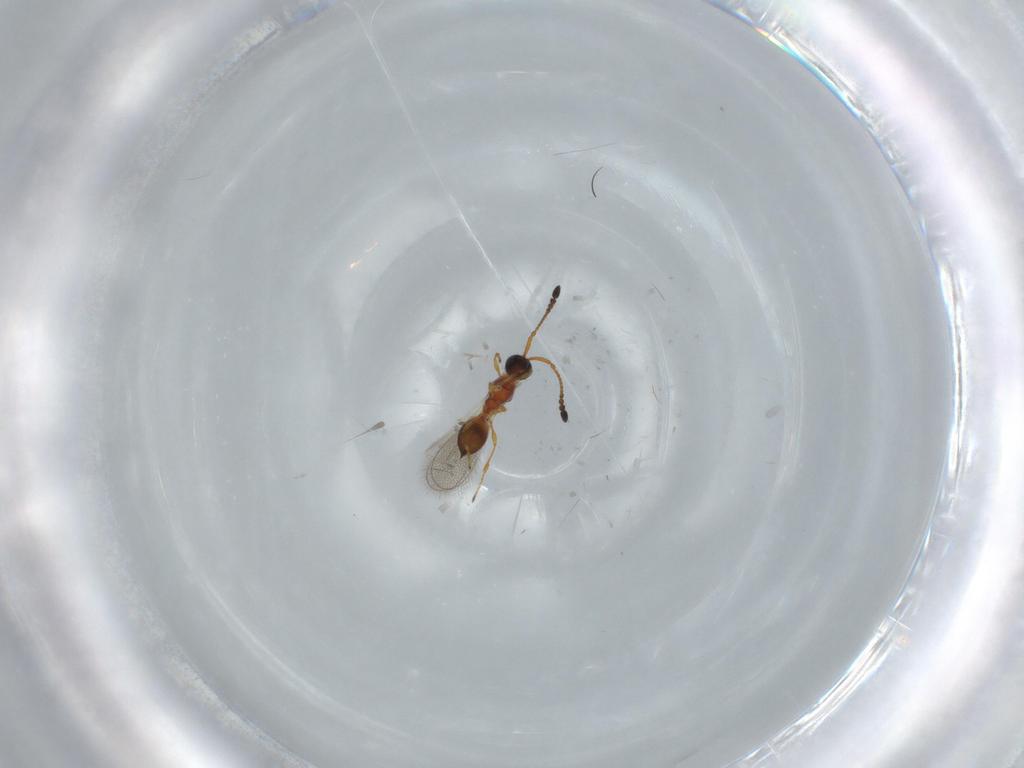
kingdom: Animalia
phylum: Arthropoda
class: Insecta
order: Hymenoptera
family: Diapriidae
